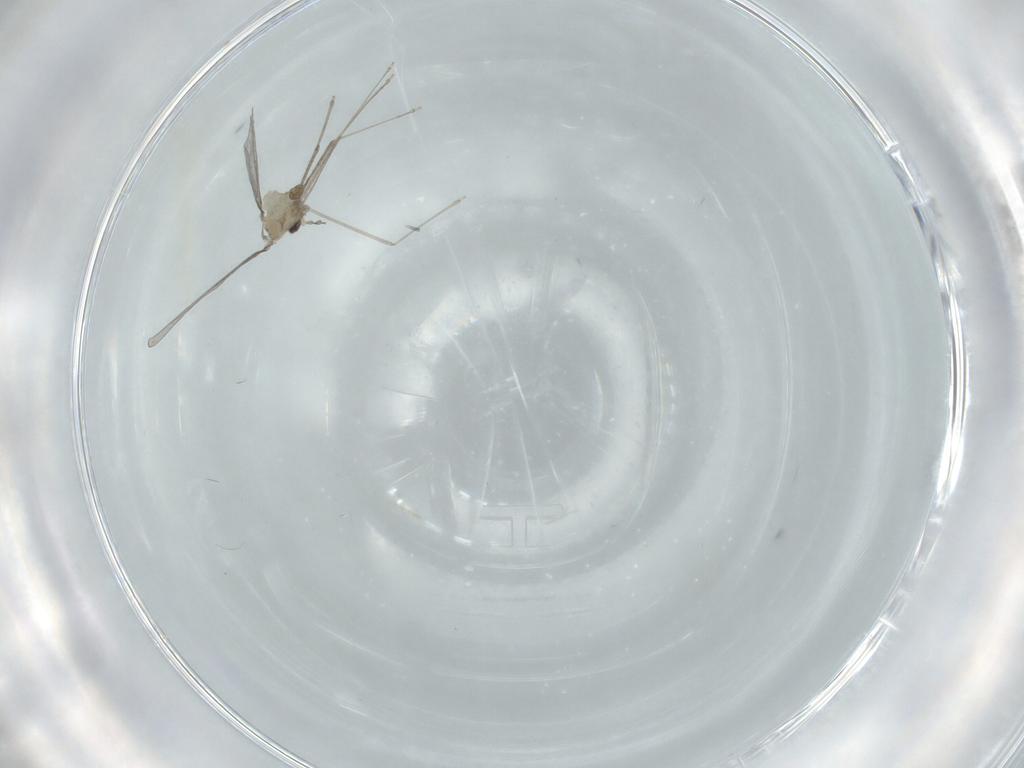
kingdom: Animalia
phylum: Arthropoda
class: Insecta
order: Diptera
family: Cecidomyiidae
